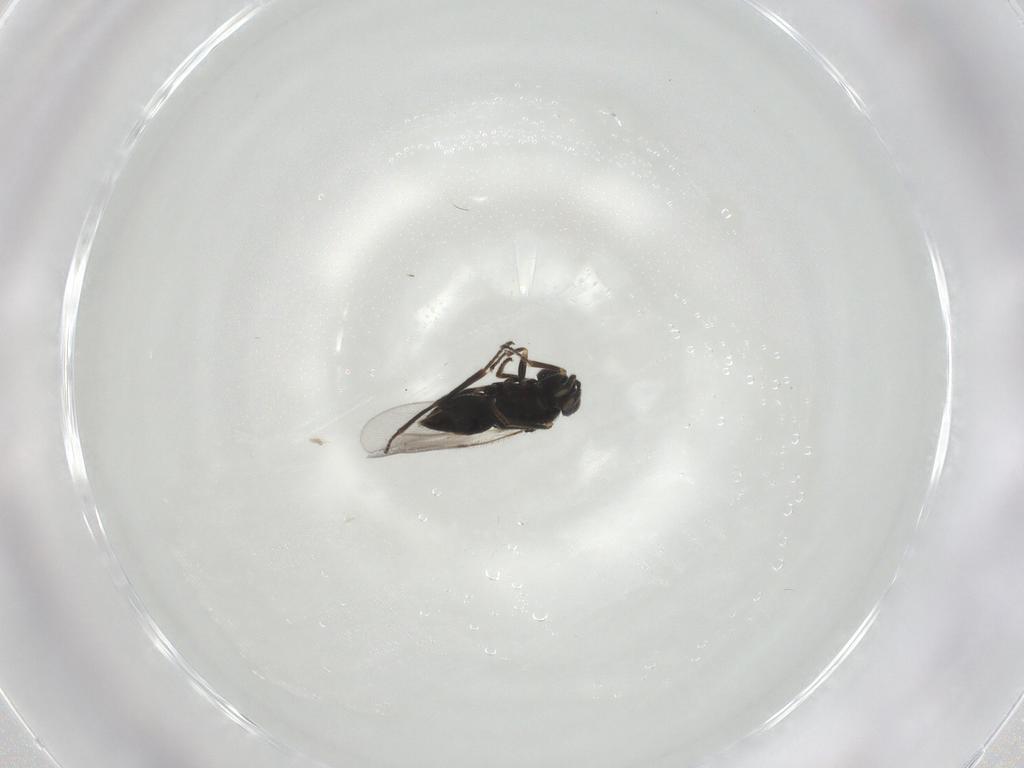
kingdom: Animalia
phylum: Arthropoda
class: Insecta
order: Hymenoptera
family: Encyrtidae
